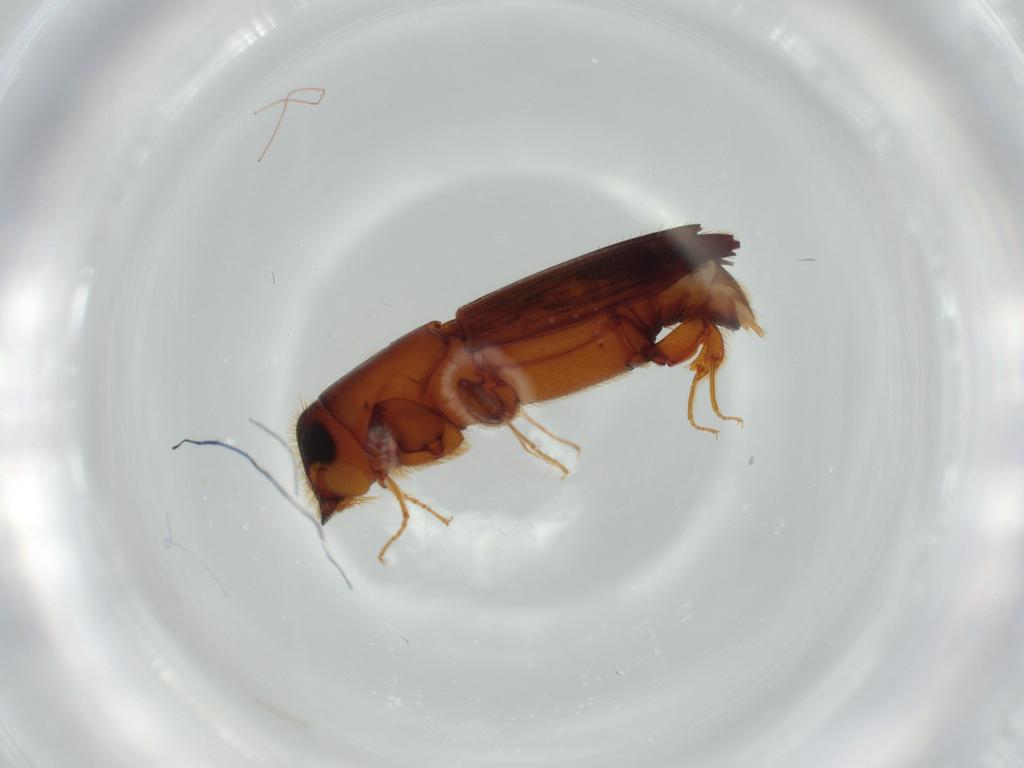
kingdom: Animalia
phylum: Arthropoda
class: Insecta
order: Coleoptera
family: Curculionidae
